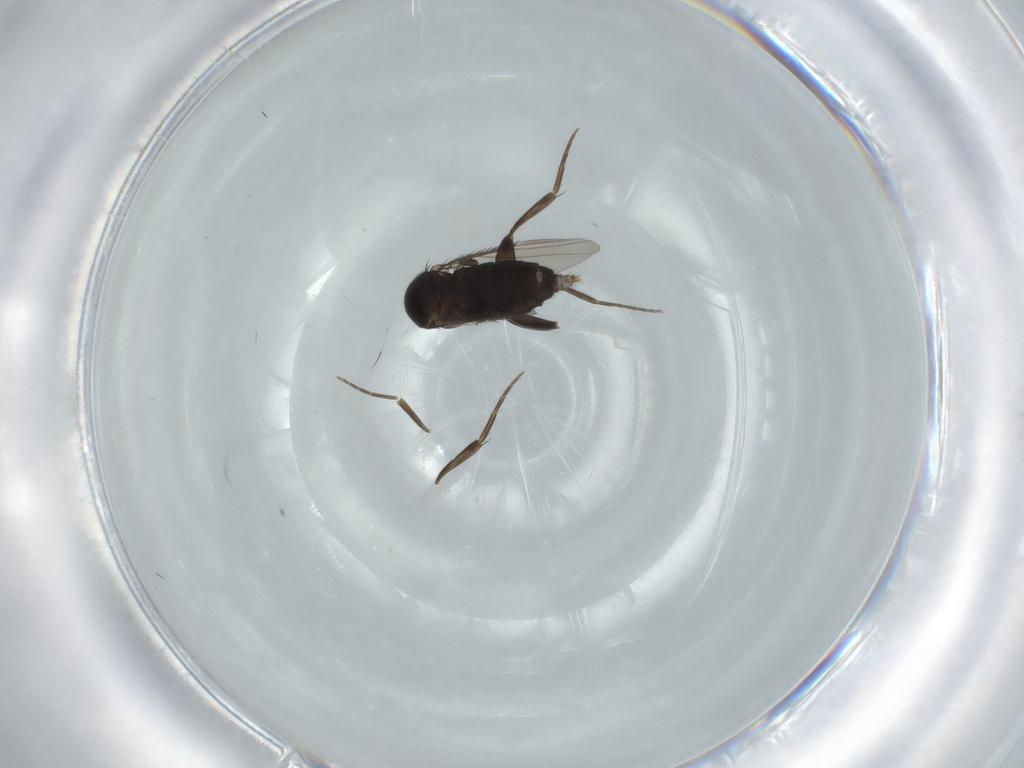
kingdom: Animalia
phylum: Arthropoda
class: Insecta
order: Diptera
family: Phoridae
